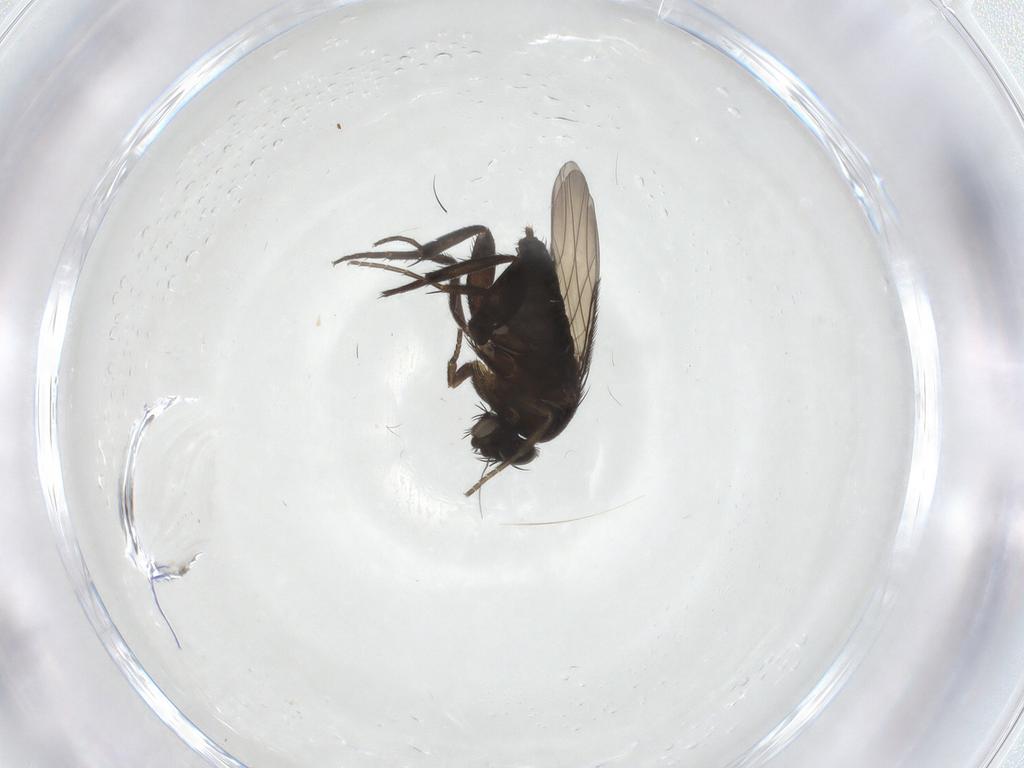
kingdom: Animalia
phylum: Arthropoda
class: Insecta
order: Diptera
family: Phoridae
